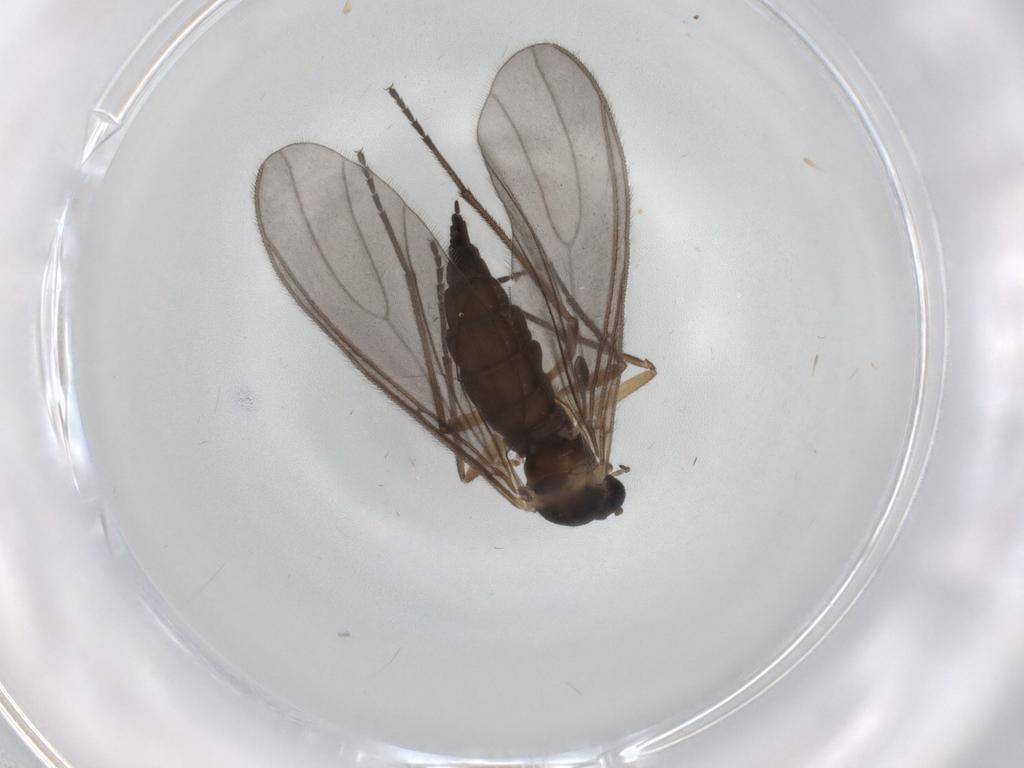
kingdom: Animalia
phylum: Arthropoda
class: Insecta
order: Diptera
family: Sciaridae
